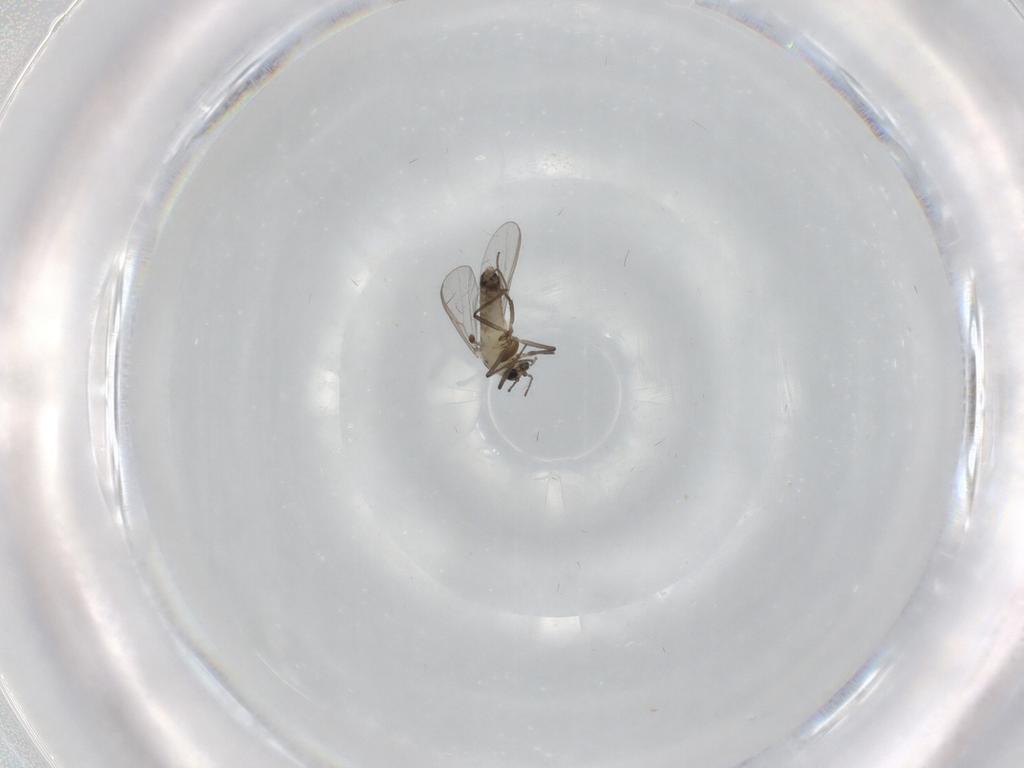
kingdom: Animalia
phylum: Arthropoda
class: Insecta
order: Diptera
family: Chironomidae
